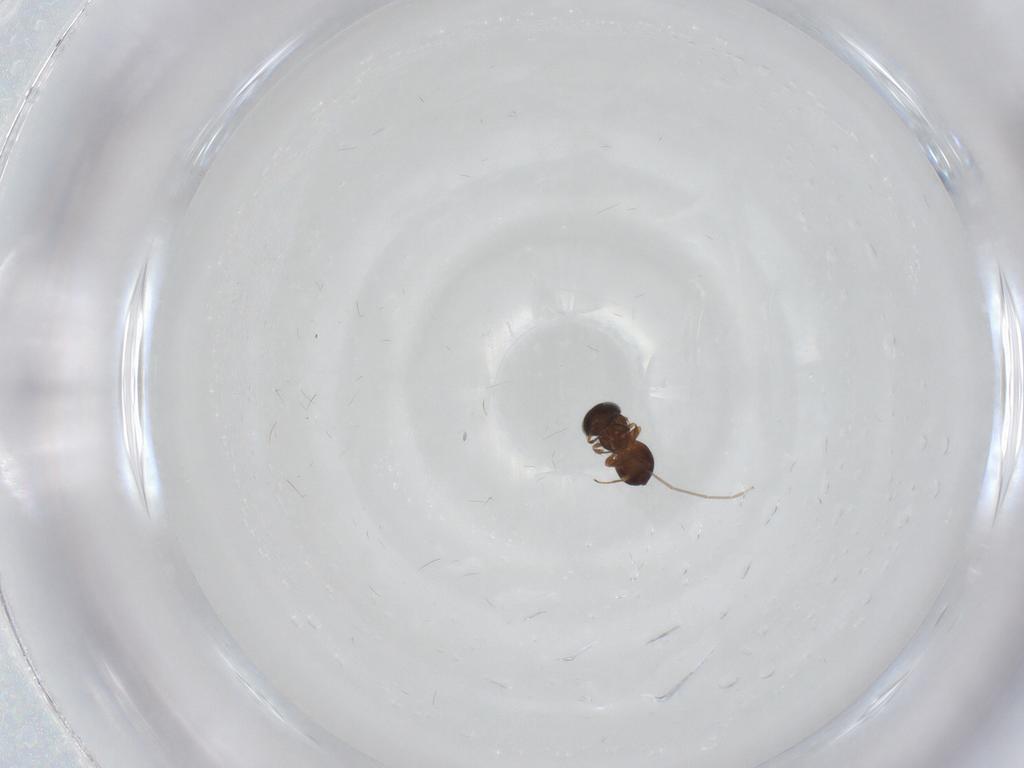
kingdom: Animalia
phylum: Arthropoda
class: Insecta
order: Hymenoptera
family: Scelionidae
